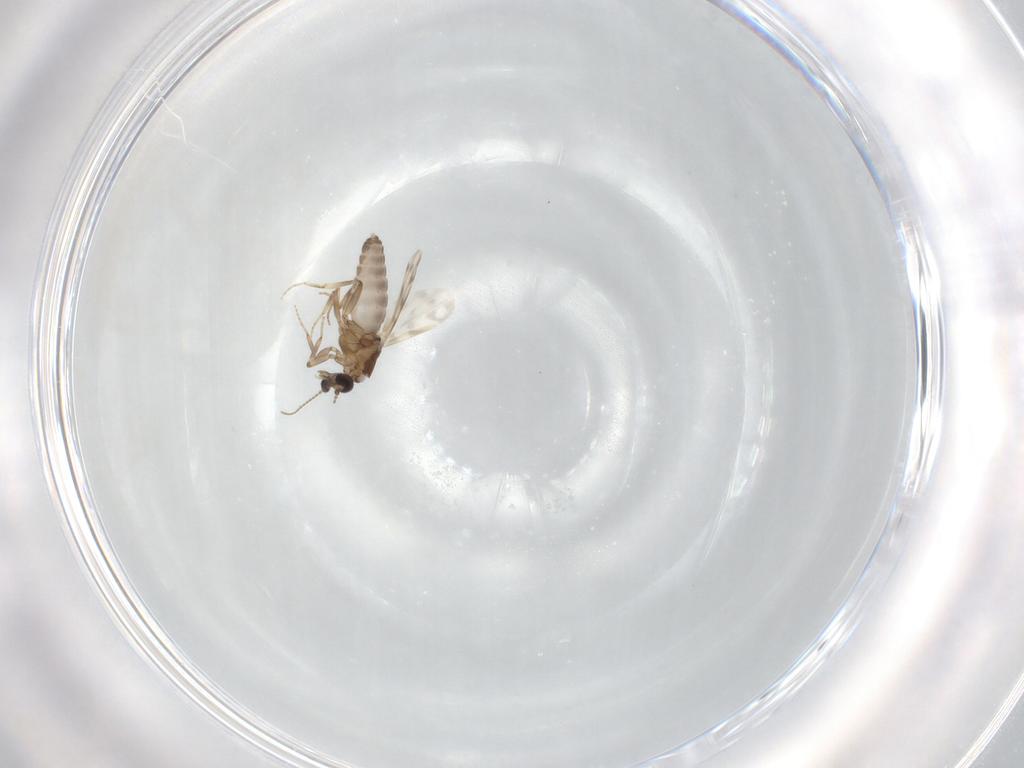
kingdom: Animalia
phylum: Arthropoda
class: Insecta
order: Diptera
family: Ceratopogonidae
